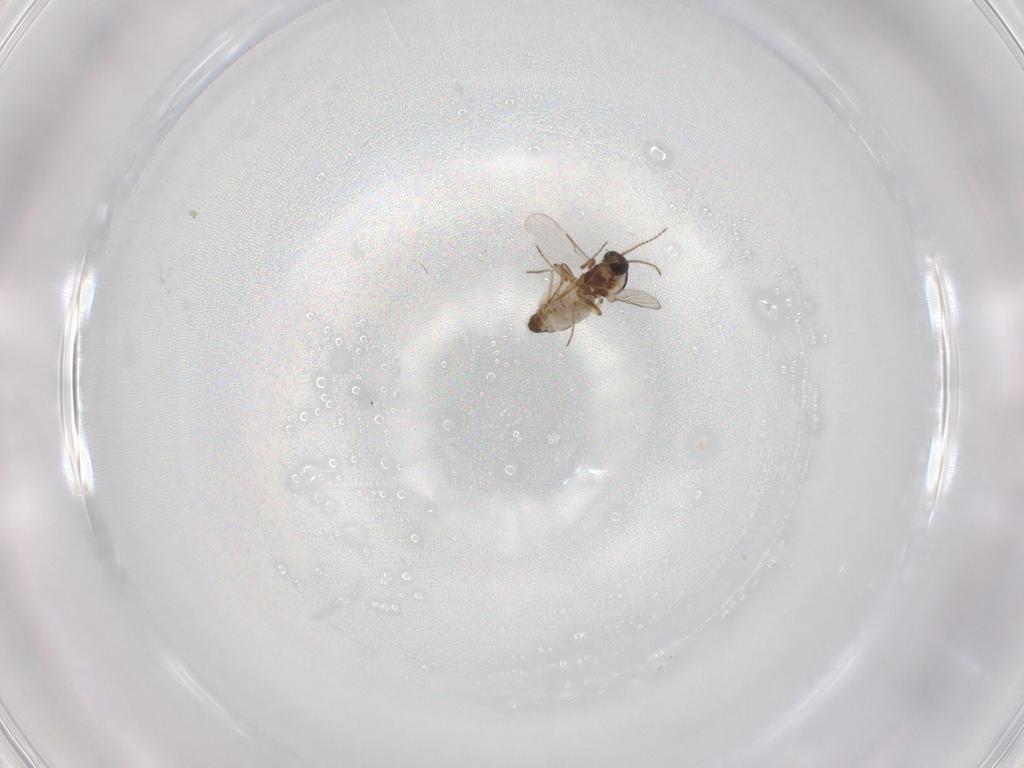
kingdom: Animalia
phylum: Arthropoda
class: Insecta
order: Diptera
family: Ceratopogonidae
